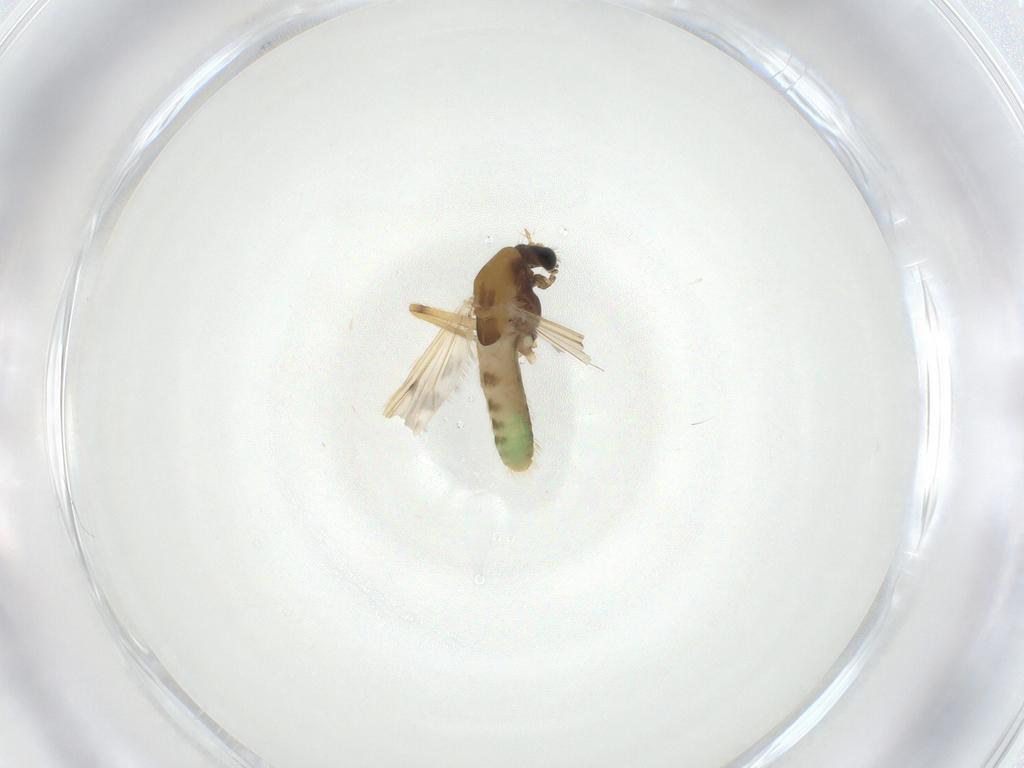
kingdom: Animalia
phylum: Arthropoda
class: Insecta
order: Diptera
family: Chironomidae
